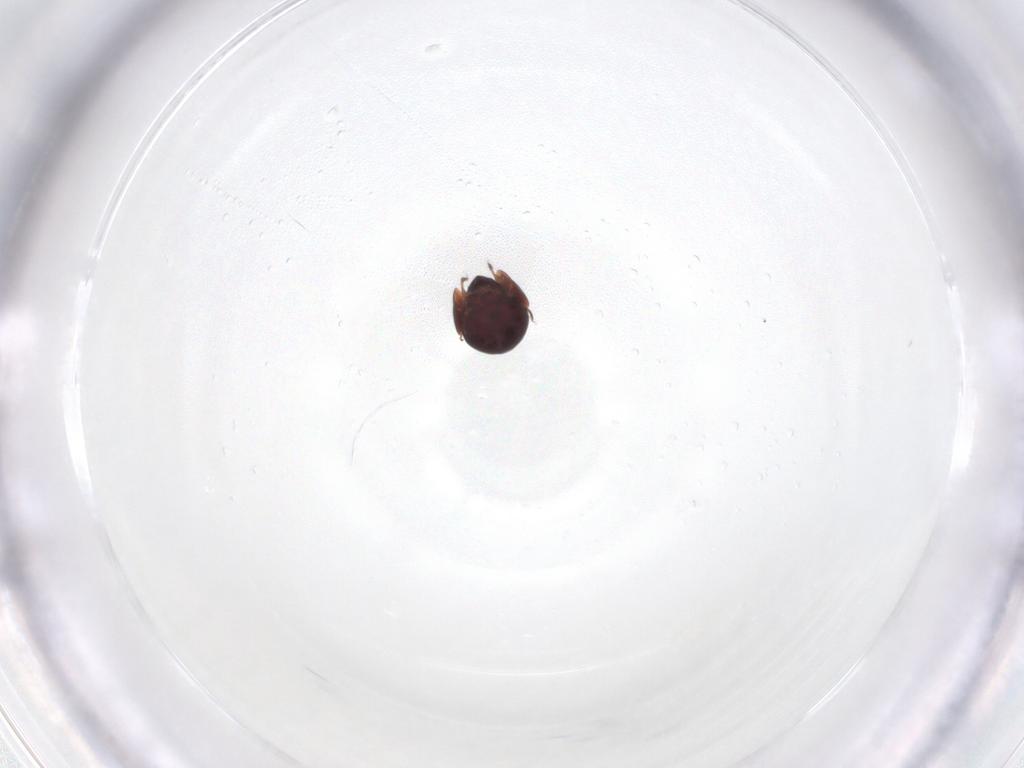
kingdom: Animalia
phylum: Arthropoda
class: Arachnida
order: Sarcoptiformes
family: Galumnidae
